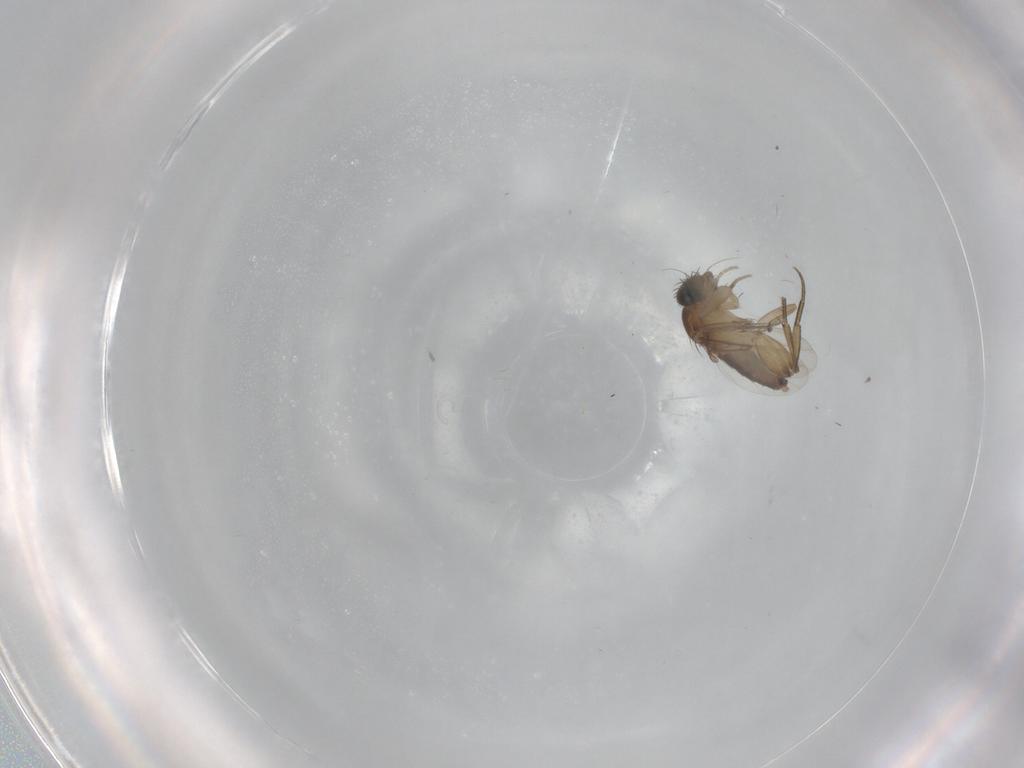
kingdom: Animalia
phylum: Arthropoda
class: Insecta
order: Diptera
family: Phoridae
